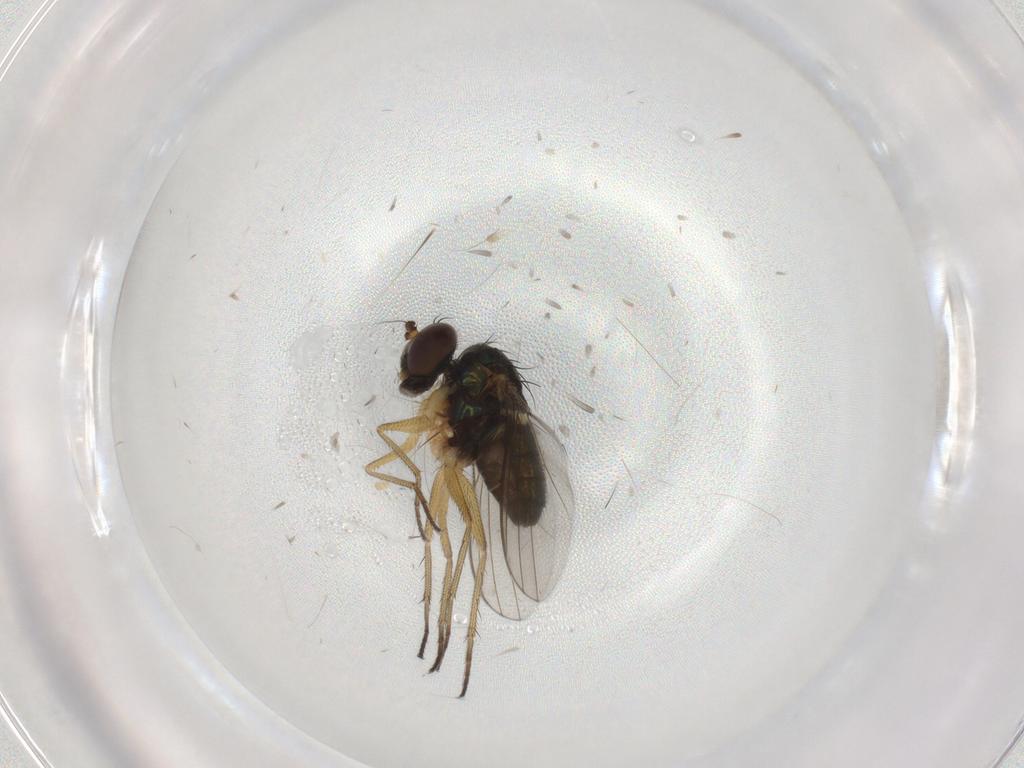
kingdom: Animalia
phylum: Arthropoda
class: Insecta
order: Diptera
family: Dolichopodidae
